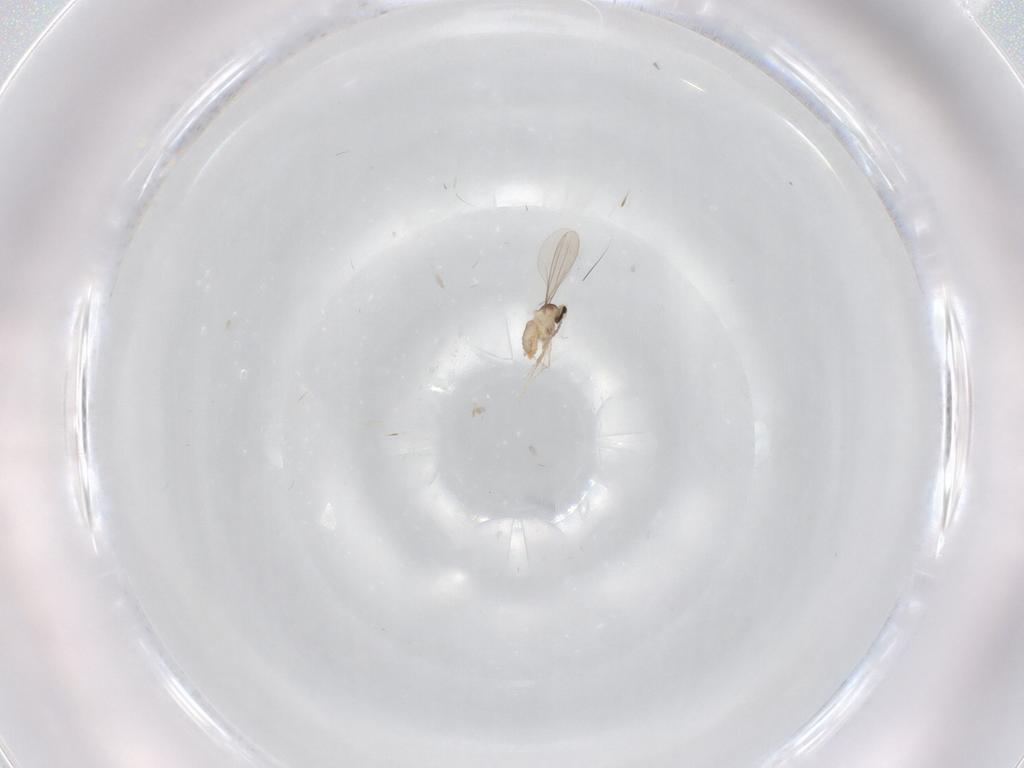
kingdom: Animalia
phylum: Arthropoda
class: Insecta
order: Diptera
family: Cecidomyiidae
